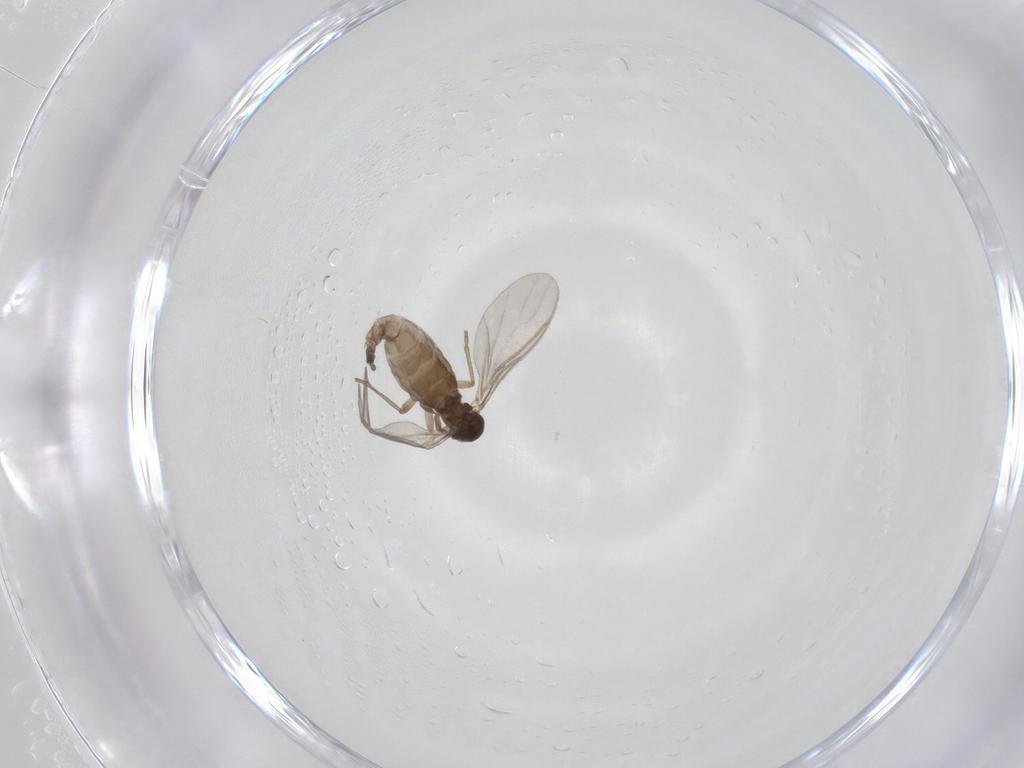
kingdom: Animalia
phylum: Arthropoda
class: Insecta
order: Diptera
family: Sciaridae
